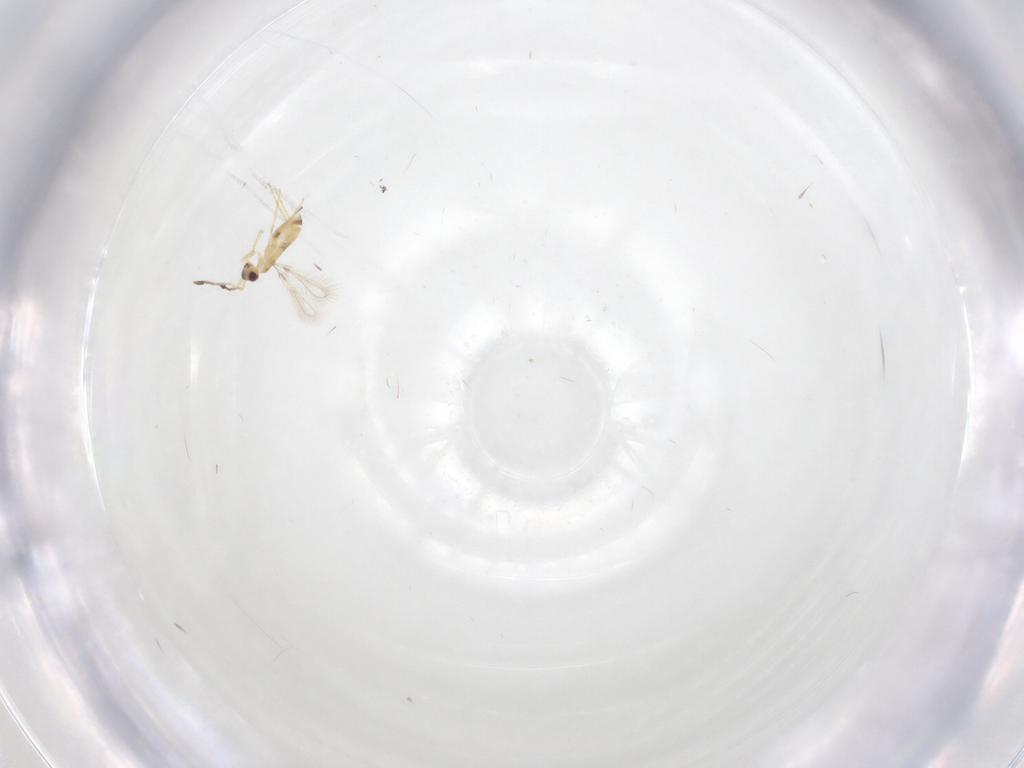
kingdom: Animalia
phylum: Arthropoda
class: Insecta
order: Hymenoptera
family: Mymaridae
